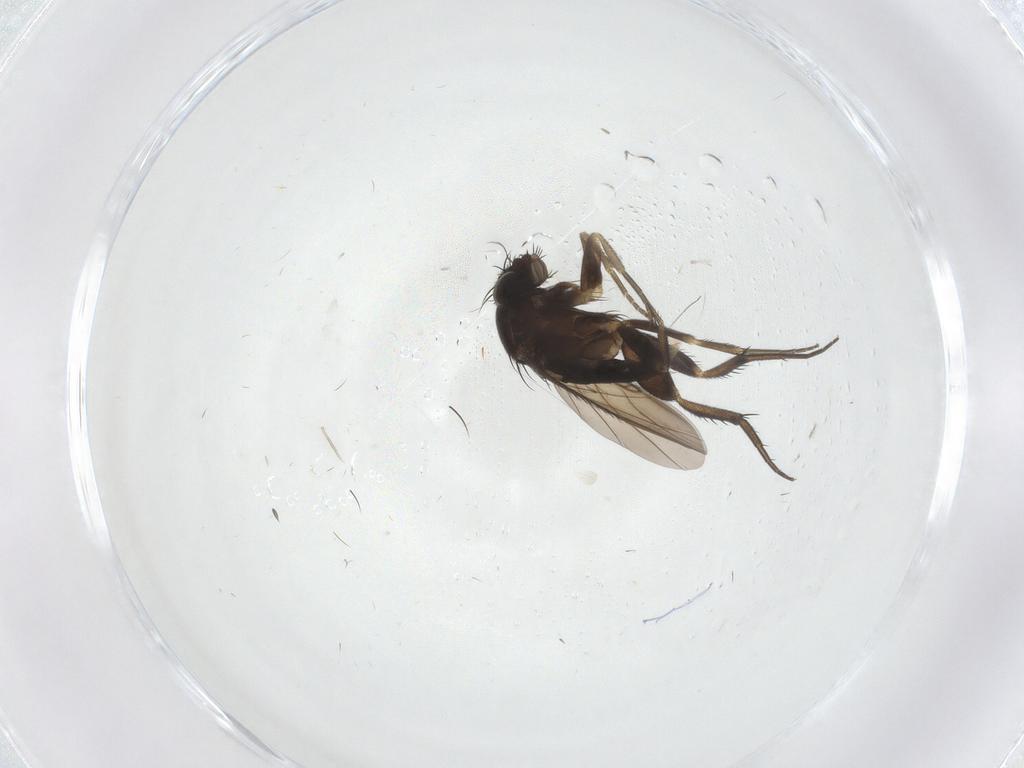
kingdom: Animalia
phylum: Arthropoda
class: Insecta
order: Diptera
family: Phoridae
